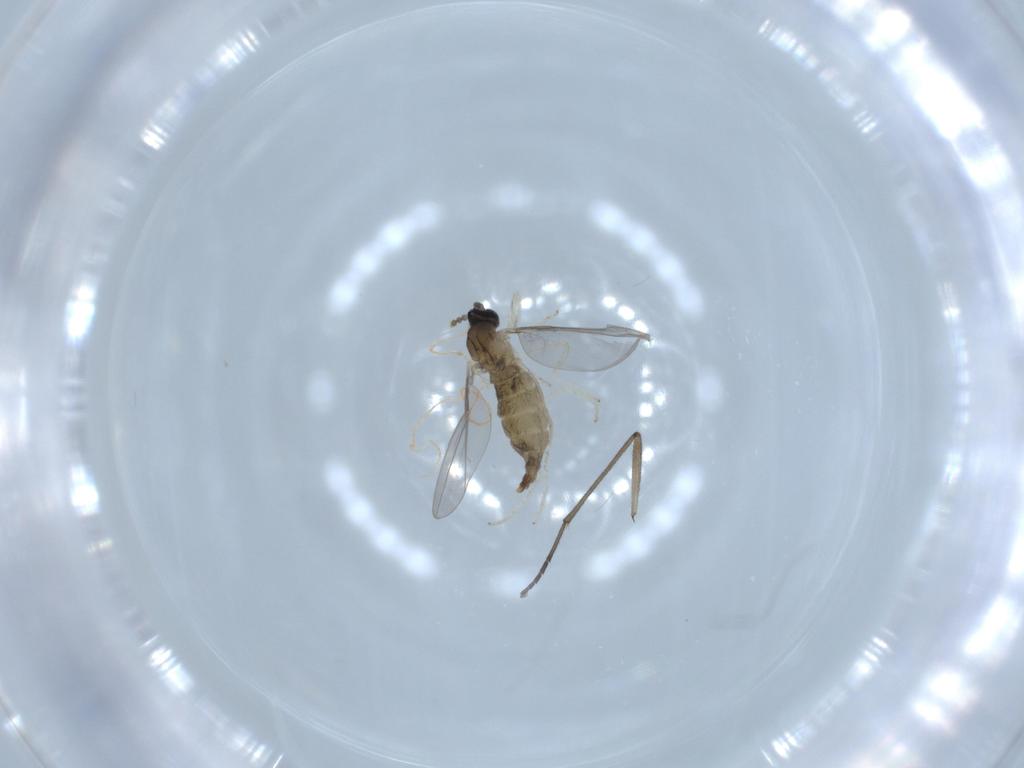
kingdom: Animalia
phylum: Arthropoda
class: Insecta
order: Diptera
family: Cecidomyiidae
